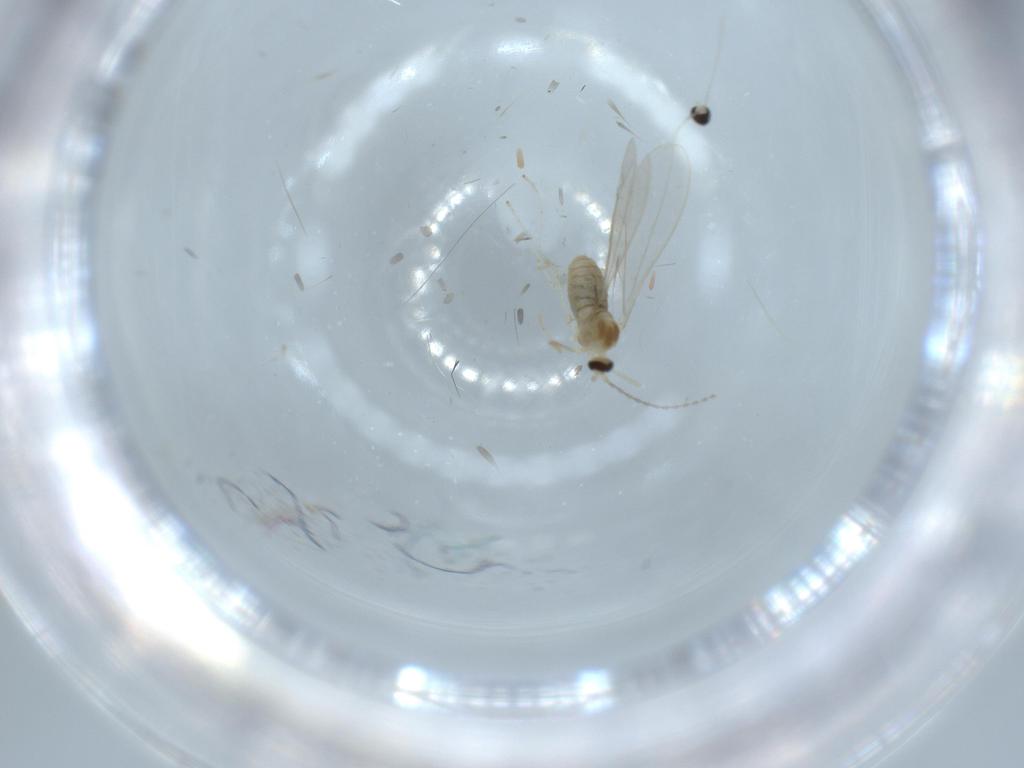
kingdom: Animalia
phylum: Arthropoda
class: Insecta
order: Diptera
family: Cecidomyiidae
